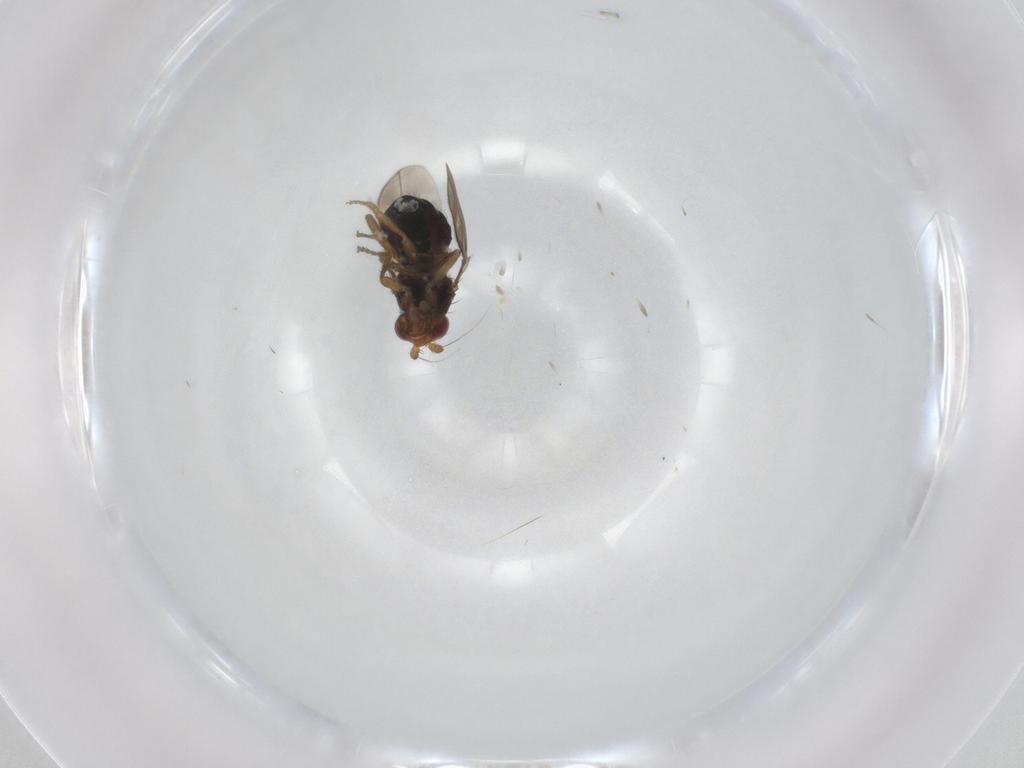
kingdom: Animalia
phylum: Arthropoda
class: Insecta
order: Diptera
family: Sphaeroceridae
